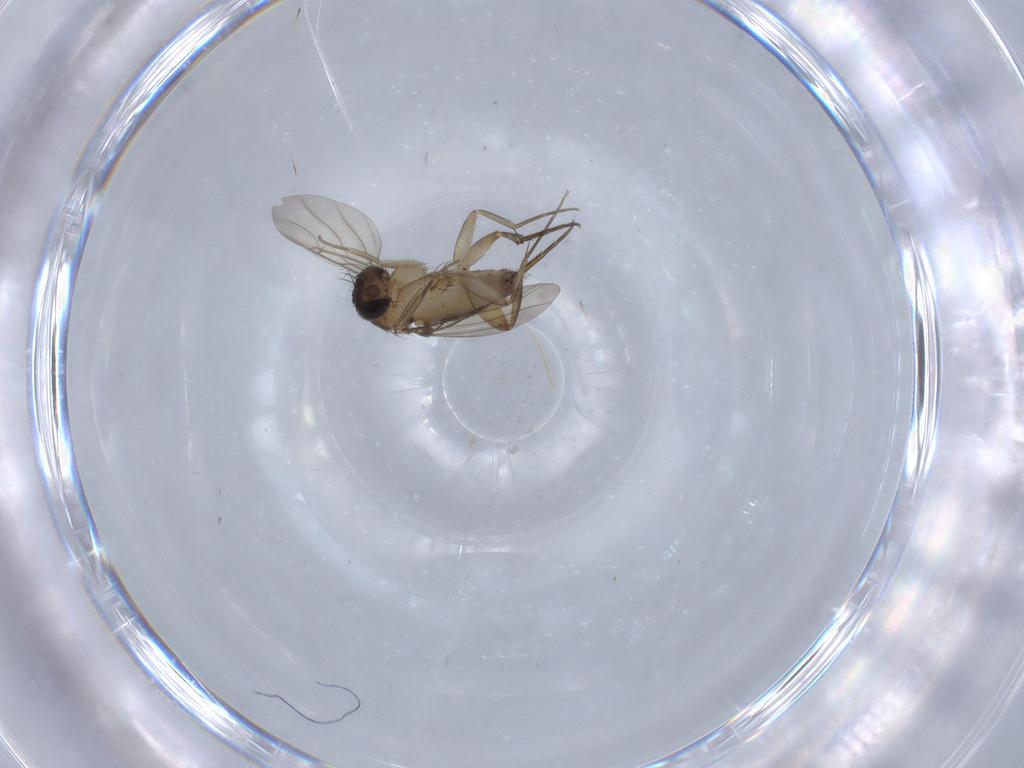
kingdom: Animalia
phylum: Arthropoda
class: Insecta
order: Diptera
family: Phoridae
